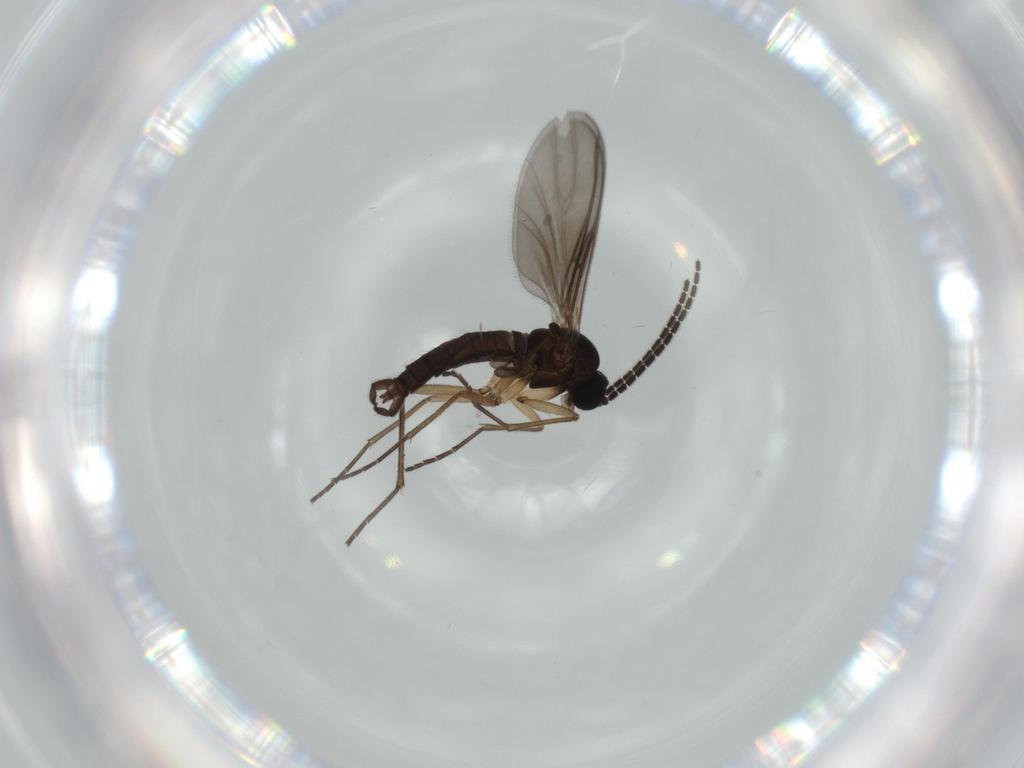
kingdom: Animalia
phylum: Arthropoda
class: Insecta
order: Diptera
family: Sciaridae
